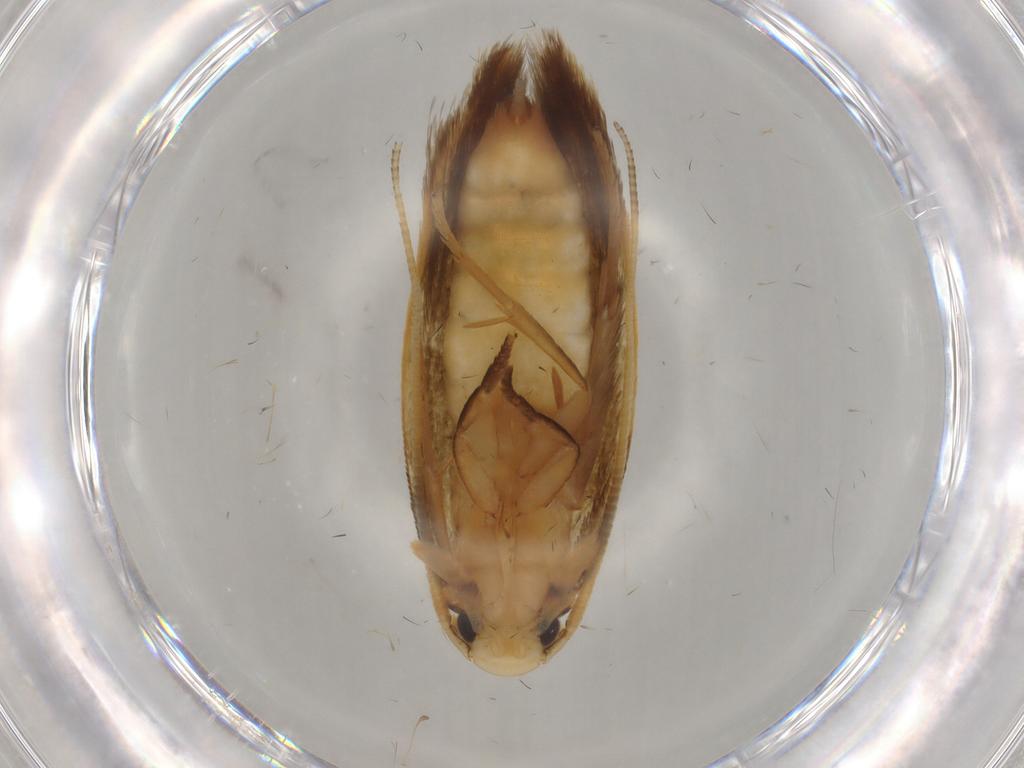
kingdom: Animalia
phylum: Arthropoda
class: Insecta
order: Lepidoptera
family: Tineidae
